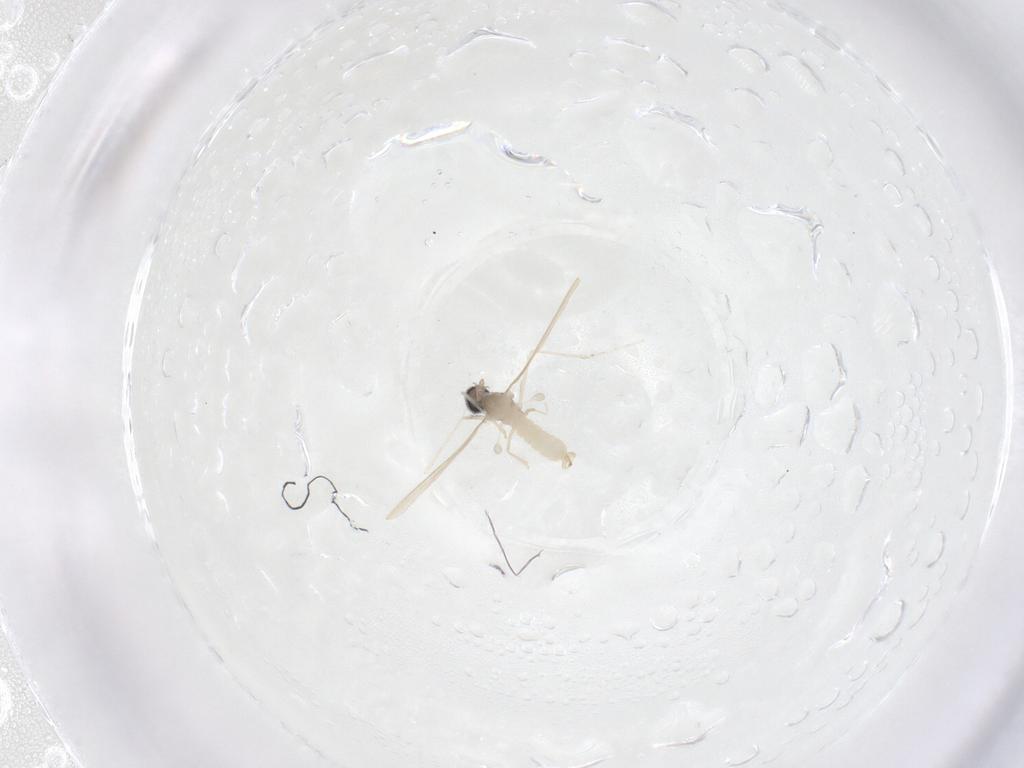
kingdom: Animalia
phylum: Arthropoda
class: Insecta
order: Diptera
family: Cecidomyiidae
